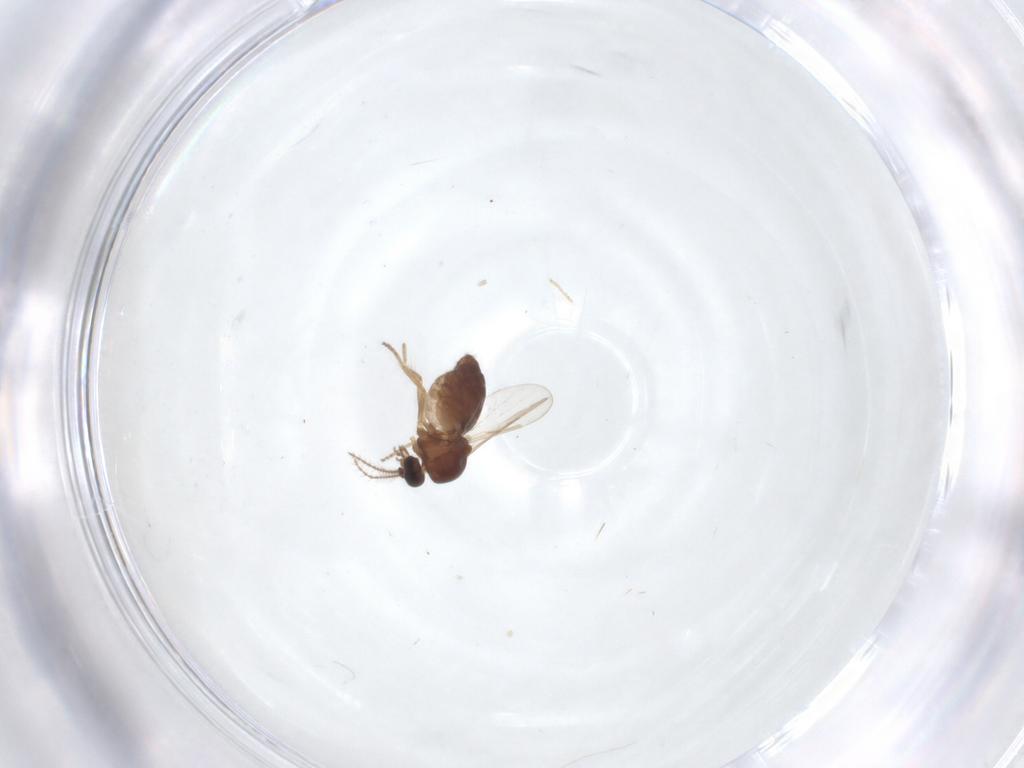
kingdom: Animalia
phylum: Arthropoda
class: Insecta
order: Diptera
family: Ceratopogonidae
